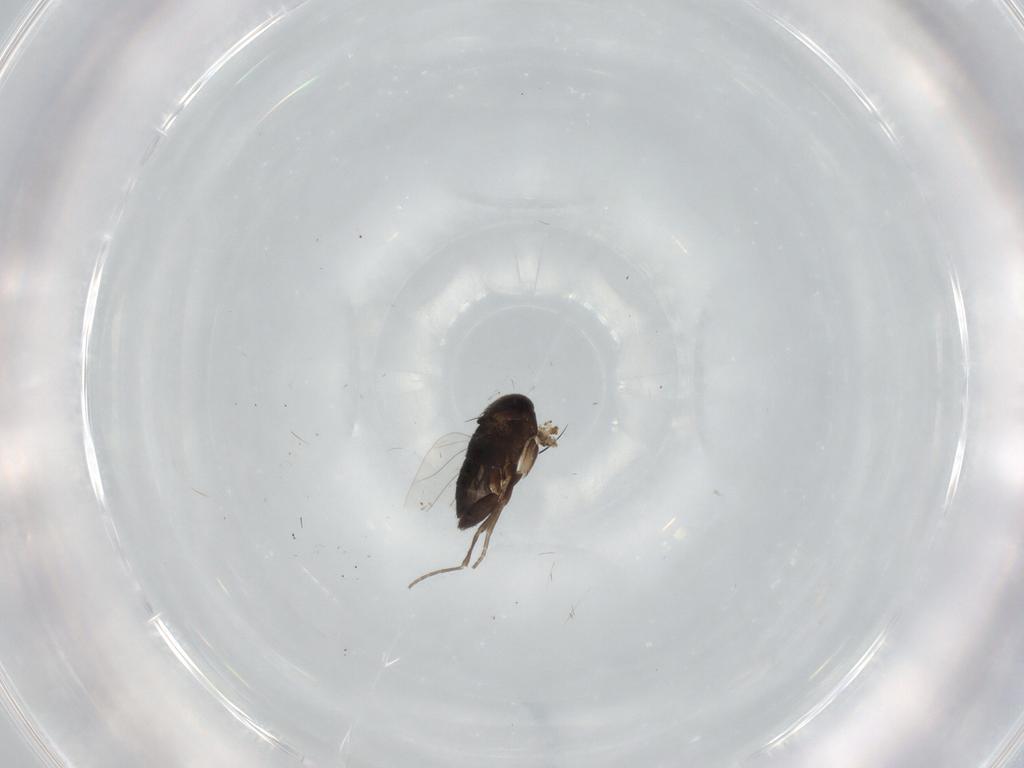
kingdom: Animalia
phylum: Arthropoda
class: Insecta
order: Diptera
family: Phoridae
